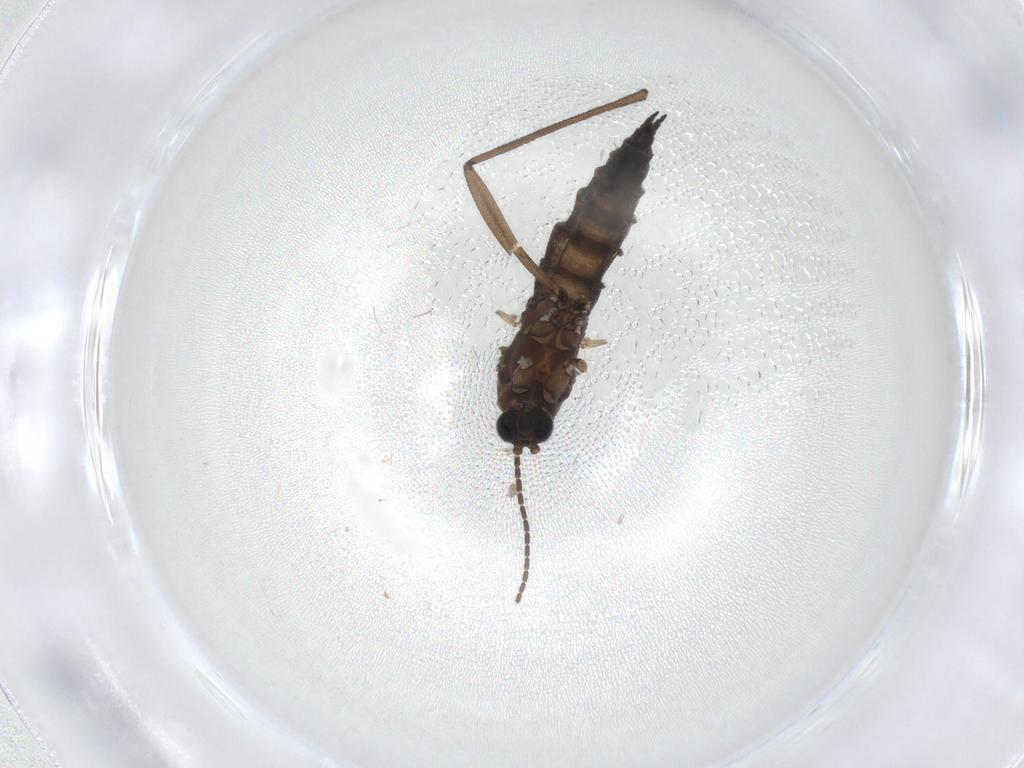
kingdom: Animalia
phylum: Arthropoda
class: Insecta
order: Diptera
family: Sciaridae
